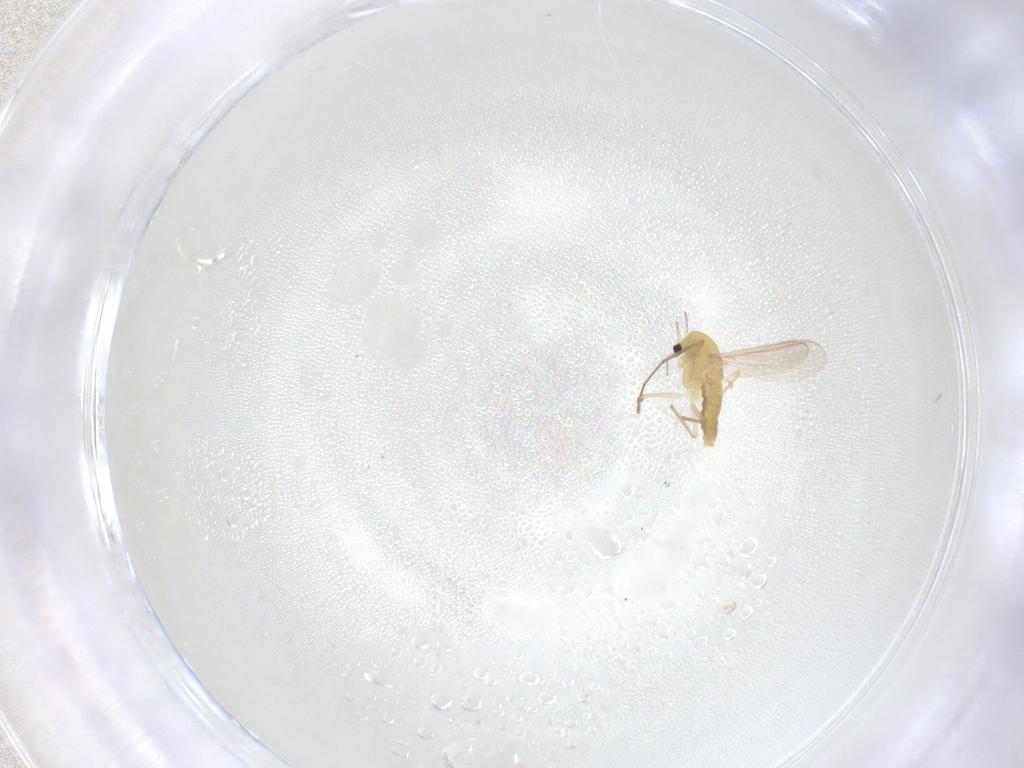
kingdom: Animalia
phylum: Arthropoda
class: Insecta
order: Diptera
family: Chironomidae
